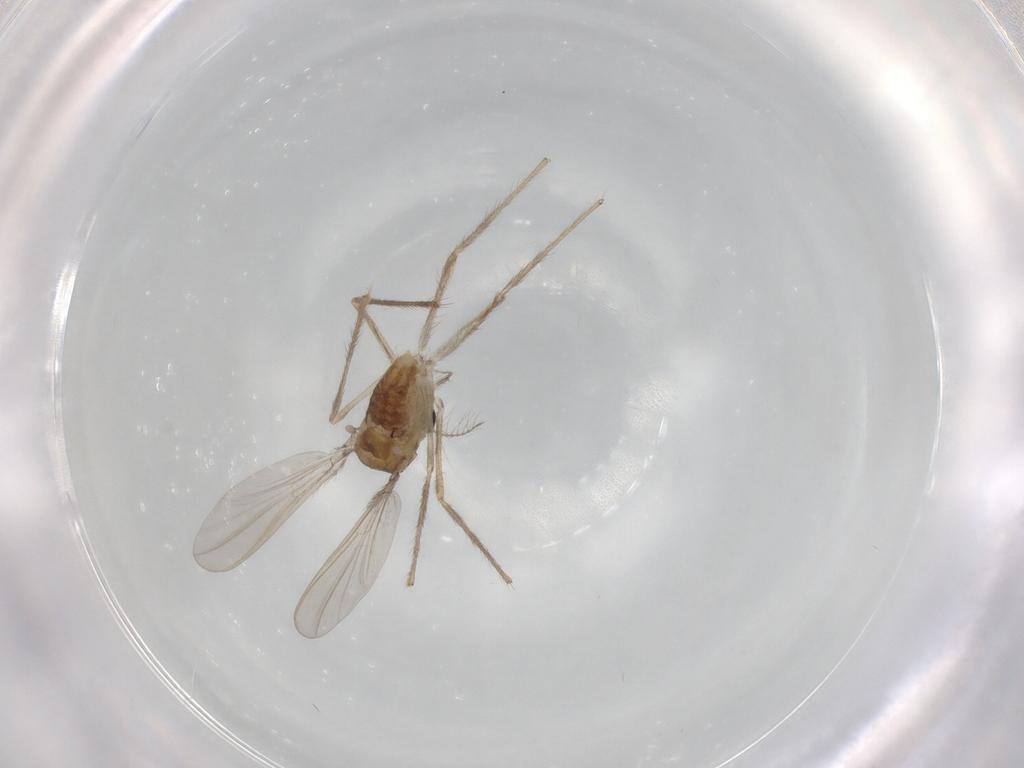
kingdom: Animalia
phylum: Arthropoda
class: Insecta
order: Diptera
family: Chironomidae
